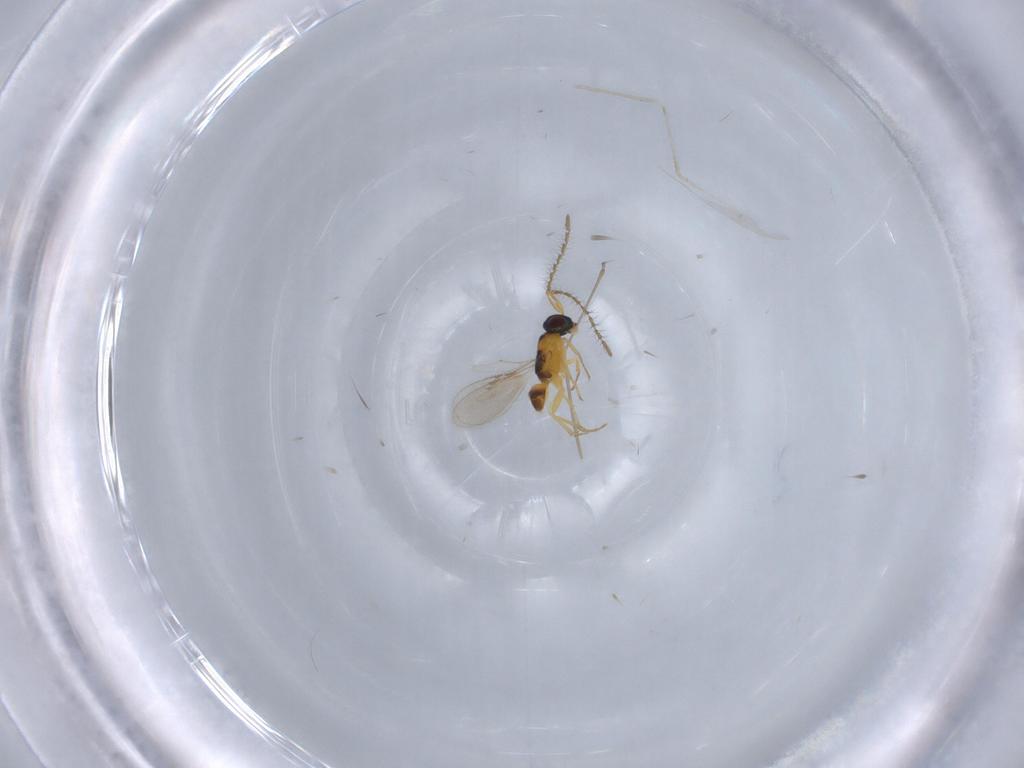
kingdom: Animalia
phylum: Arthropoda
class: Insecta
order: Hymenoptera
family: Encyrtidae
